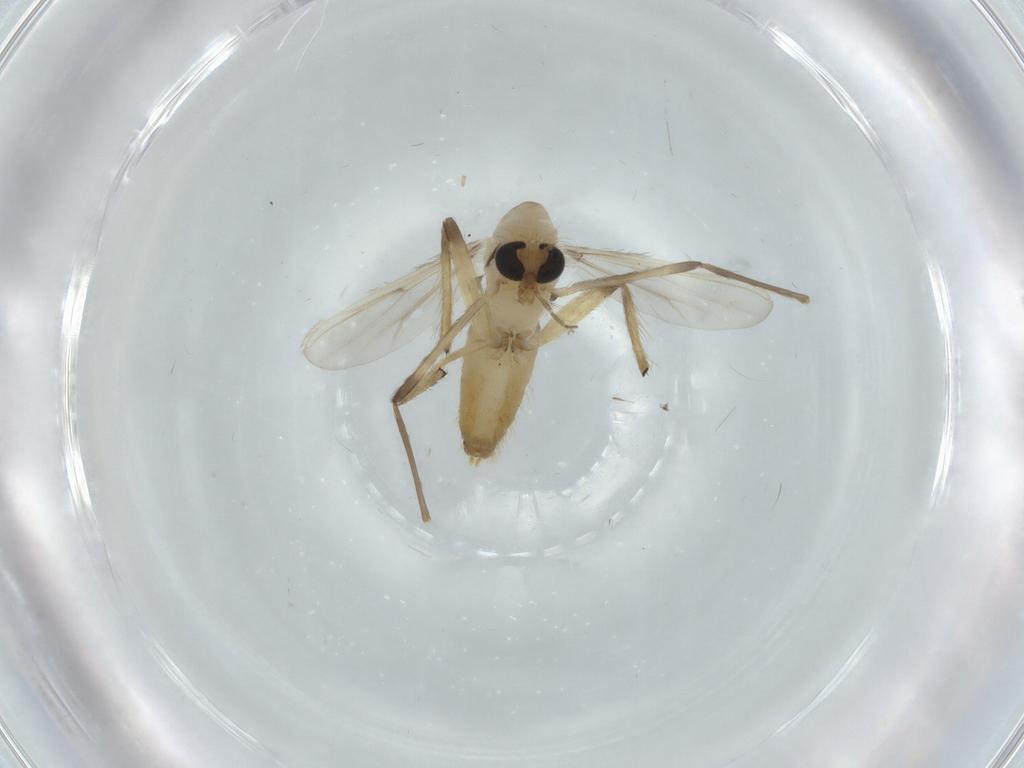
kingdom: Animalia
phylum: Arthropoda
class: Insecta
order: Diptera
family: Chironomidae
